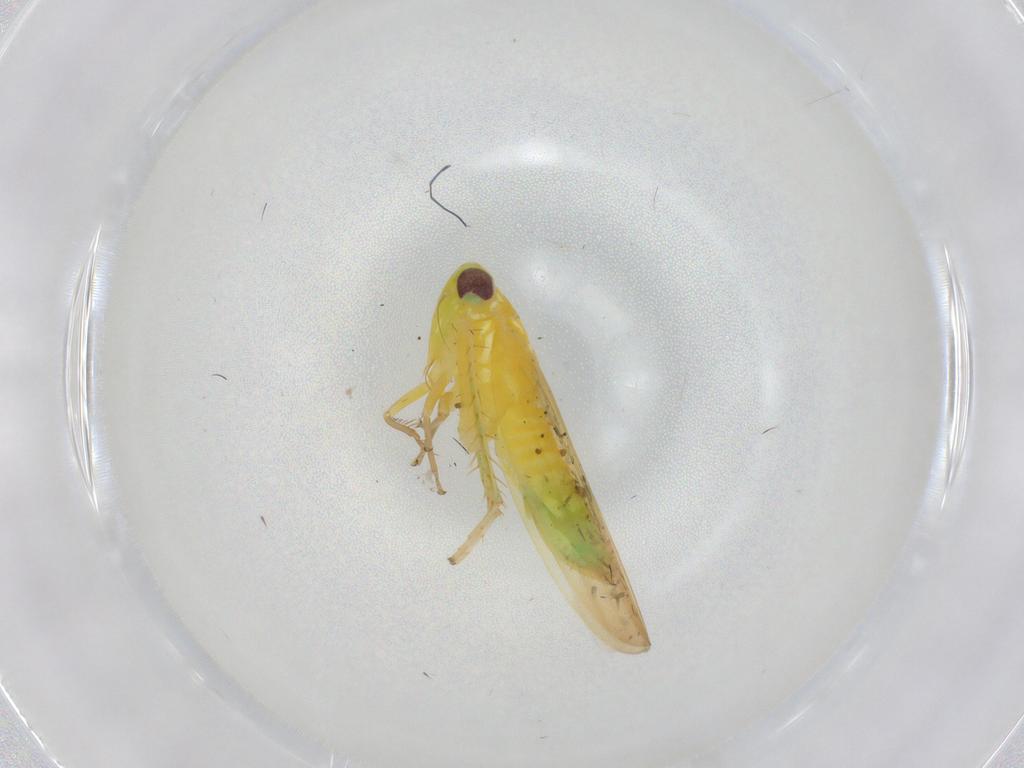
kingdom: Animalia
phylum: Arthropoda
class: Insecta
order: Hemiptera
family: Cicadellidae
